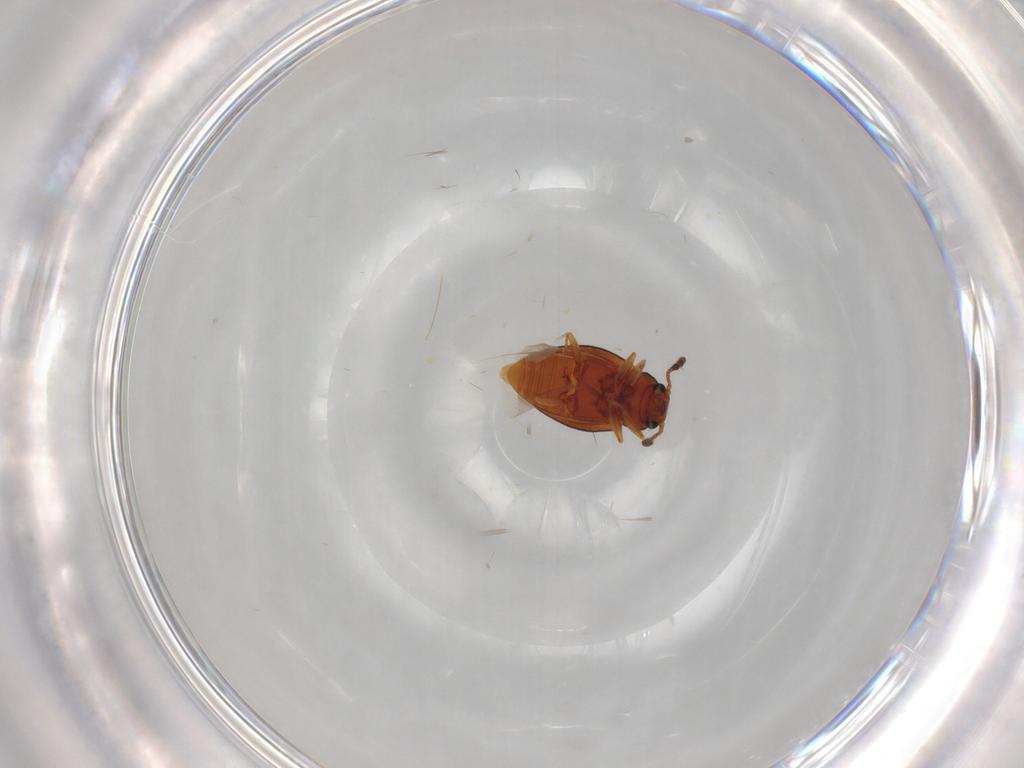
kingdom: Animalia
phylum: Arthropoda
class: Insecta
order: Coleoptera
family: Erotylidae
